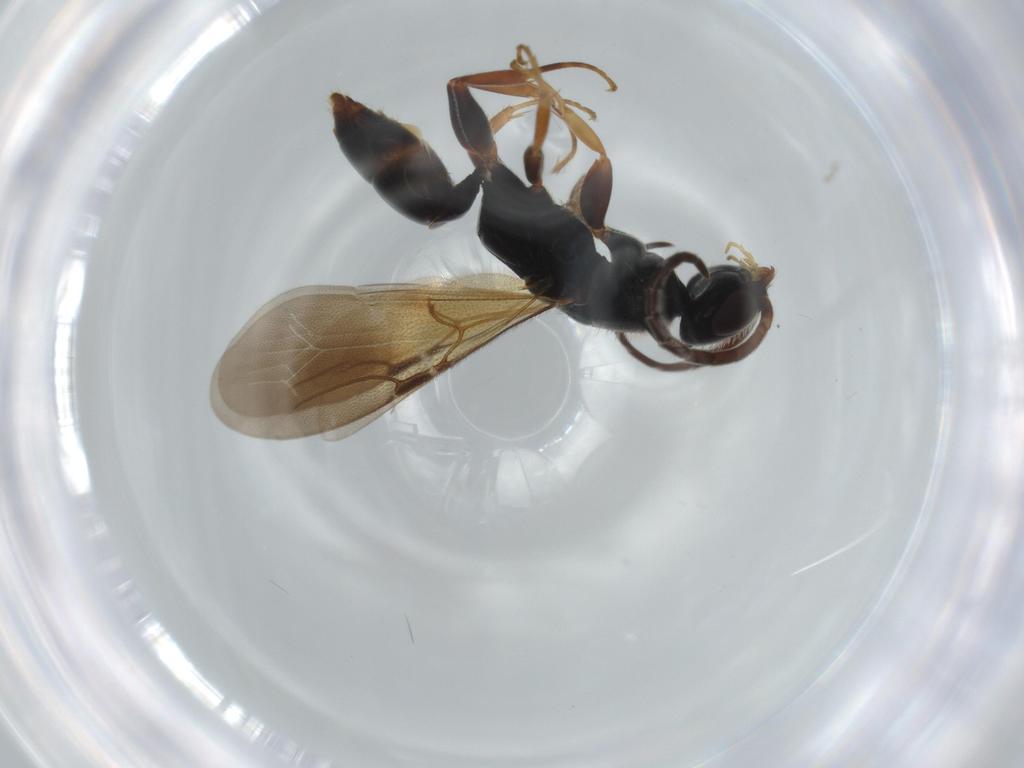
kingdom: Animalia
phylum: Arthropoda
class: Insecta
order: Hymenoptera
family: Bethylidae
